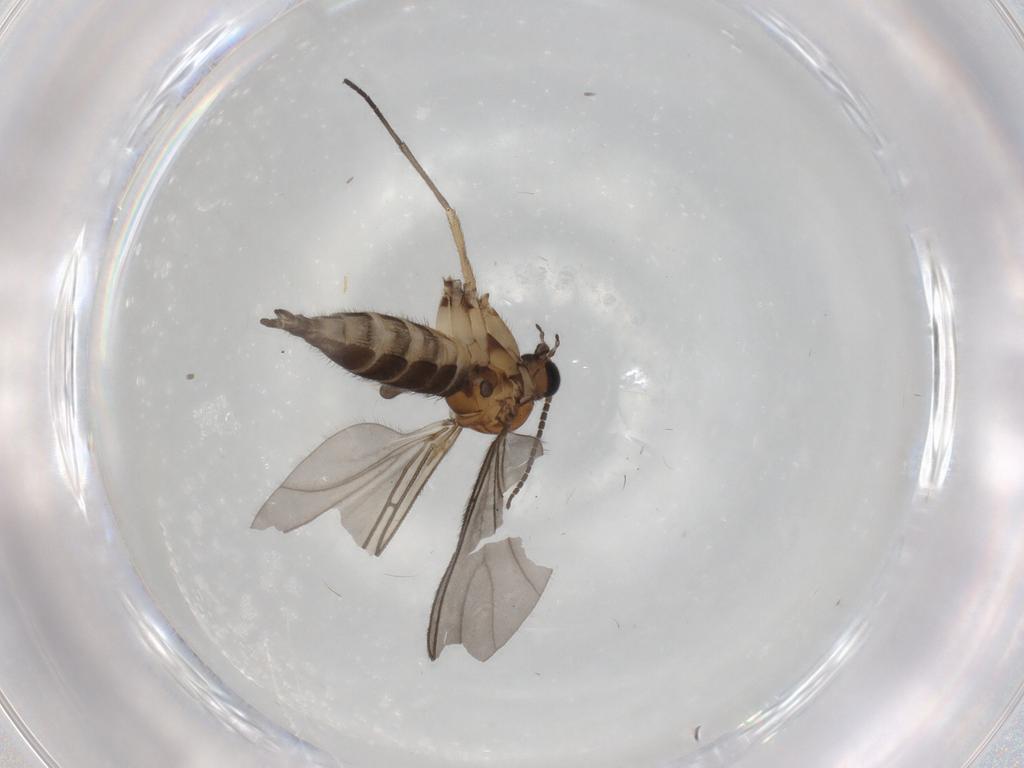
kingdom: Animalia
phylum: Arthropoda
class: Insecta
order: Diptera
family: Sciaridae
